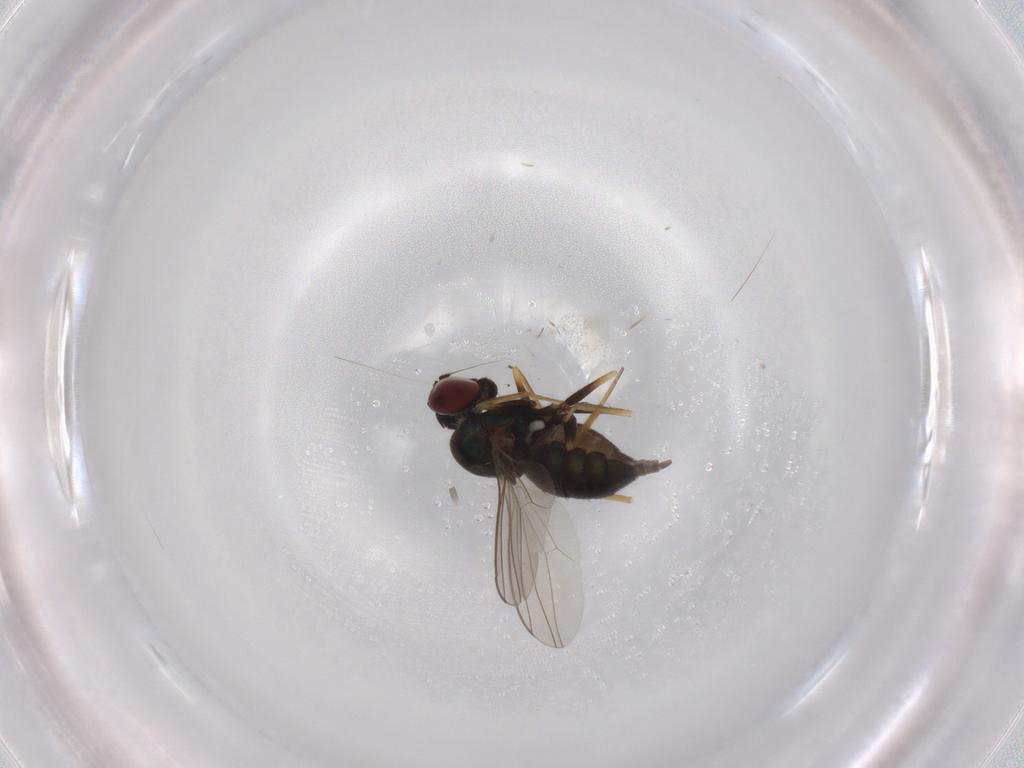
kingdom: Animalia
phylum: Arthropoda
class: Insecta
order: Diptera
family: Dolichopodidae
